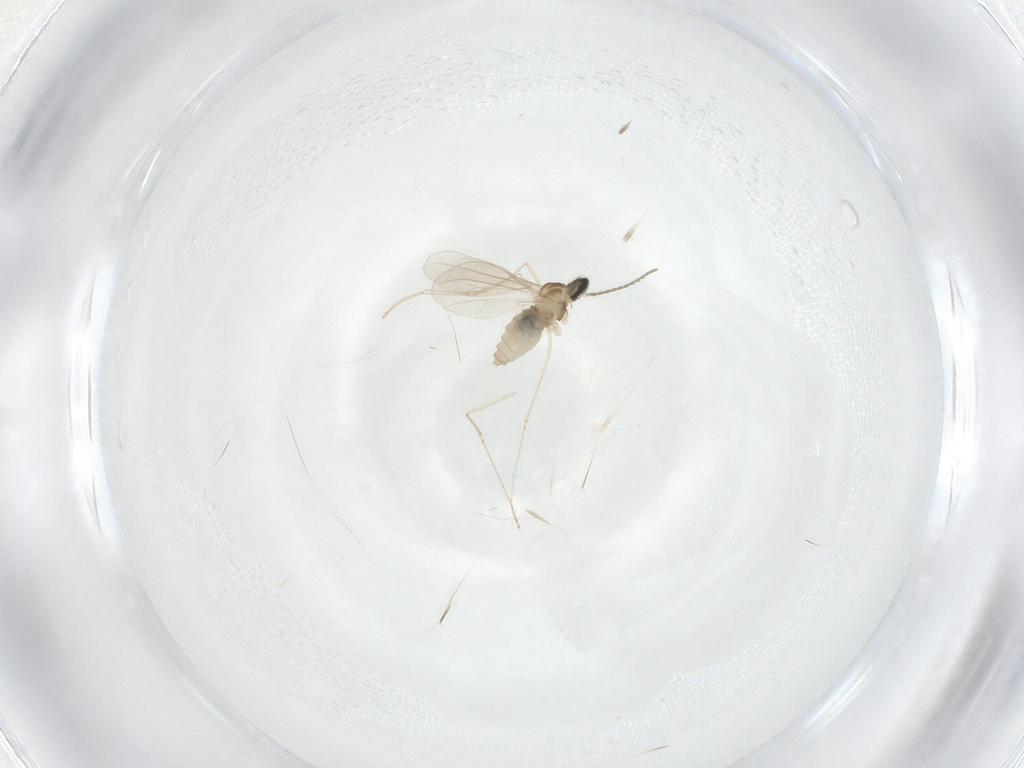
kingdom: Animalia
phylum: Arthropoda
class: Insecta
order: Diptera
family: Cecidomyiidae
